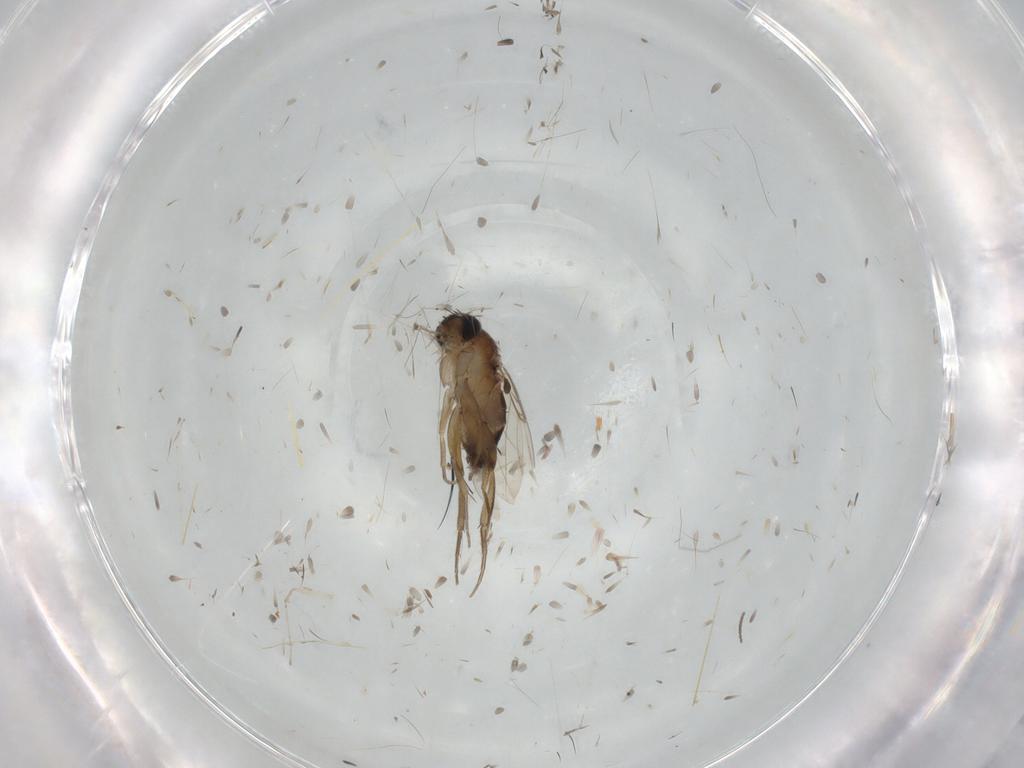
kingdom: Animalia
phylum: Arthropoda
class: Insecta
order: Diptera
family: Phoridae
